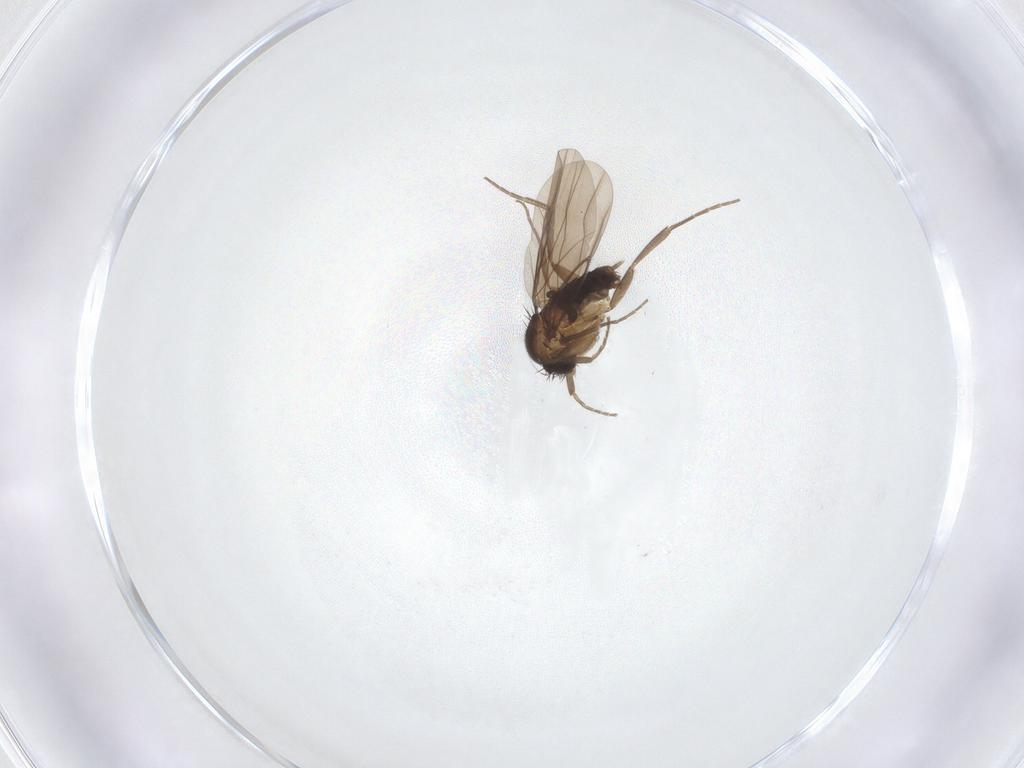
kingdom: Animalia
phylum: Arthropoda
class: Insecta
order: Diptera
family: Phoridae
